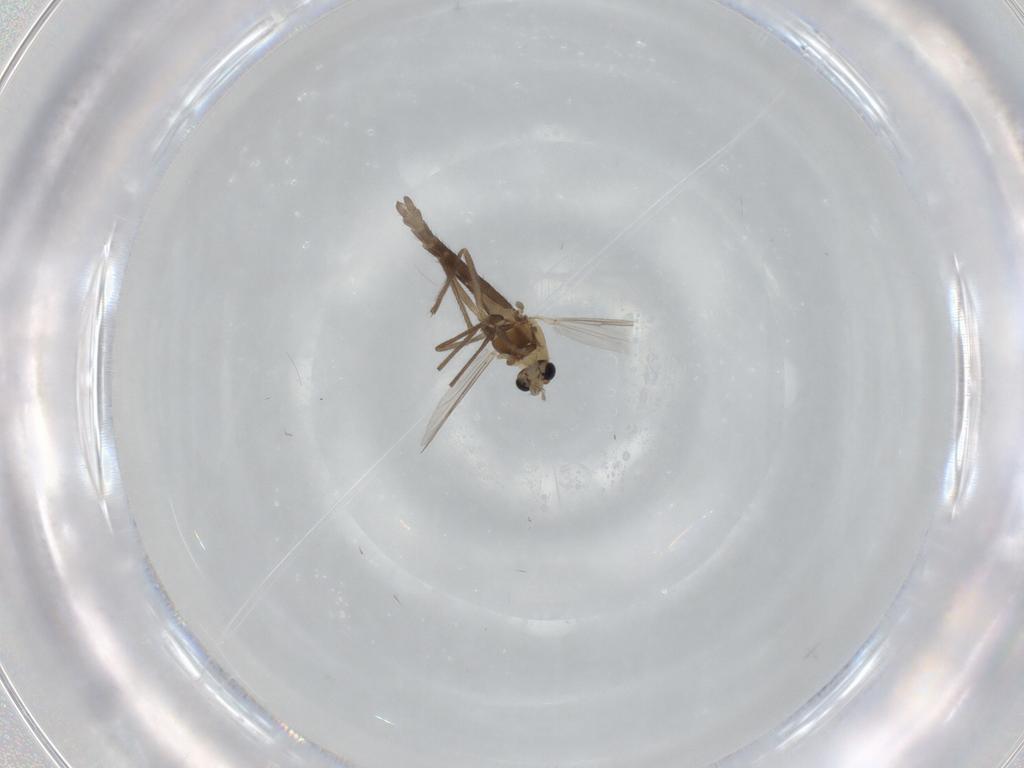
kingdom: Animalia
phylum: Arthropoda
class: Insecta
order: Diptera
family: Chironomidae
